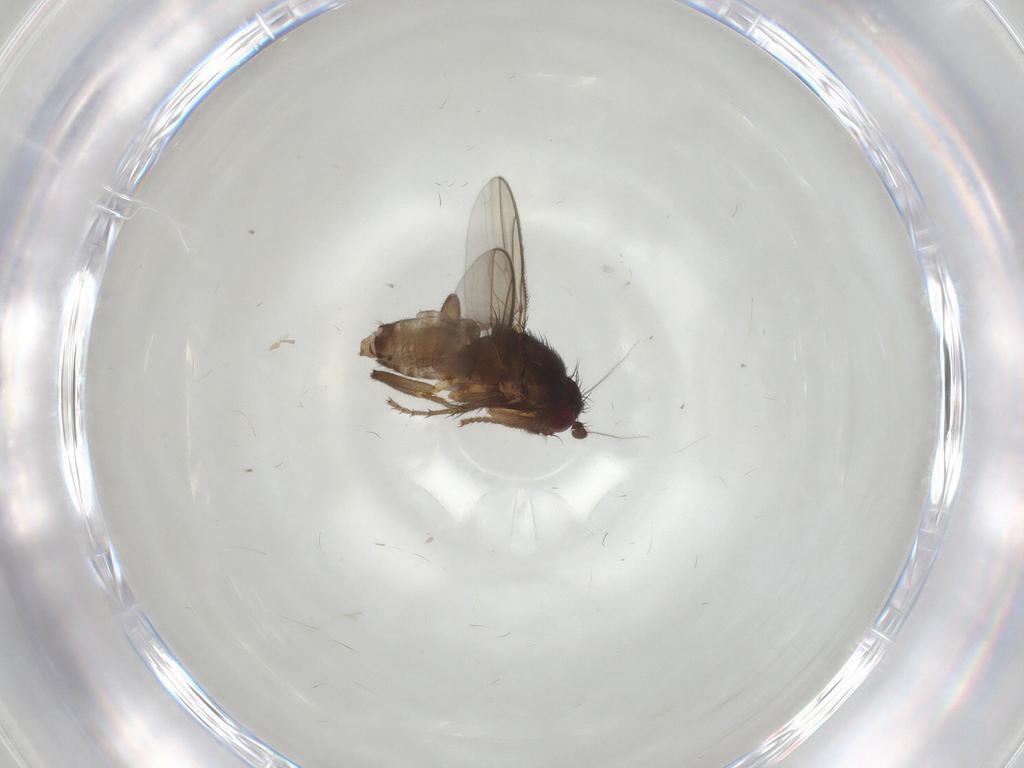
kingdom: Animalia
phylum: Arthropoda
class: Insecta
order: Diptera
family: Sphaeroceridae
